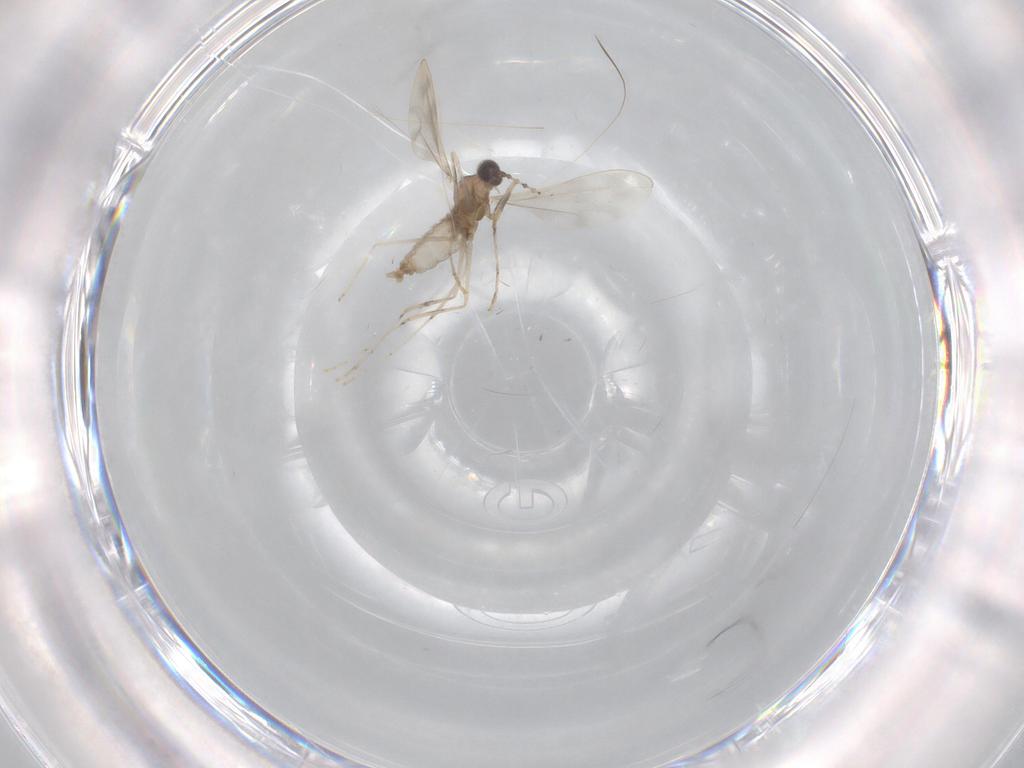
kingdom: Animalia
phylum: Arthropoda
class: Insecta
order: Diptera
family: Cecidomyiidae
